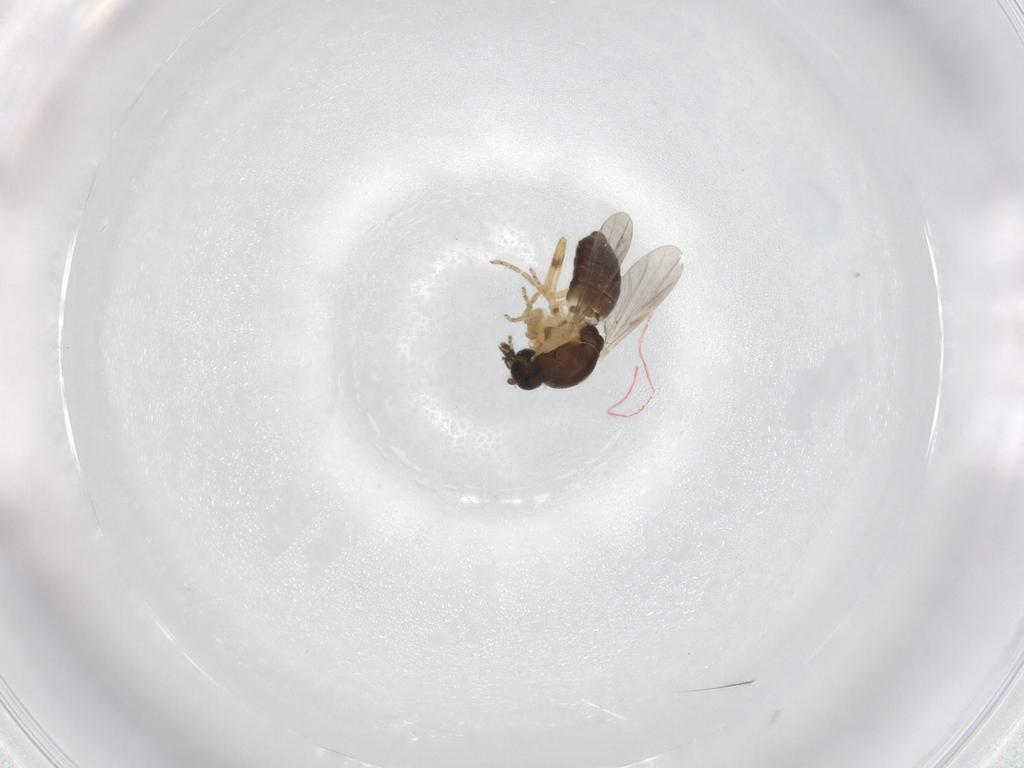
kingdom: Animalia
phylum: Arthropoda
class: Insecta
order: Diptera
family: Ceratopogonidae
